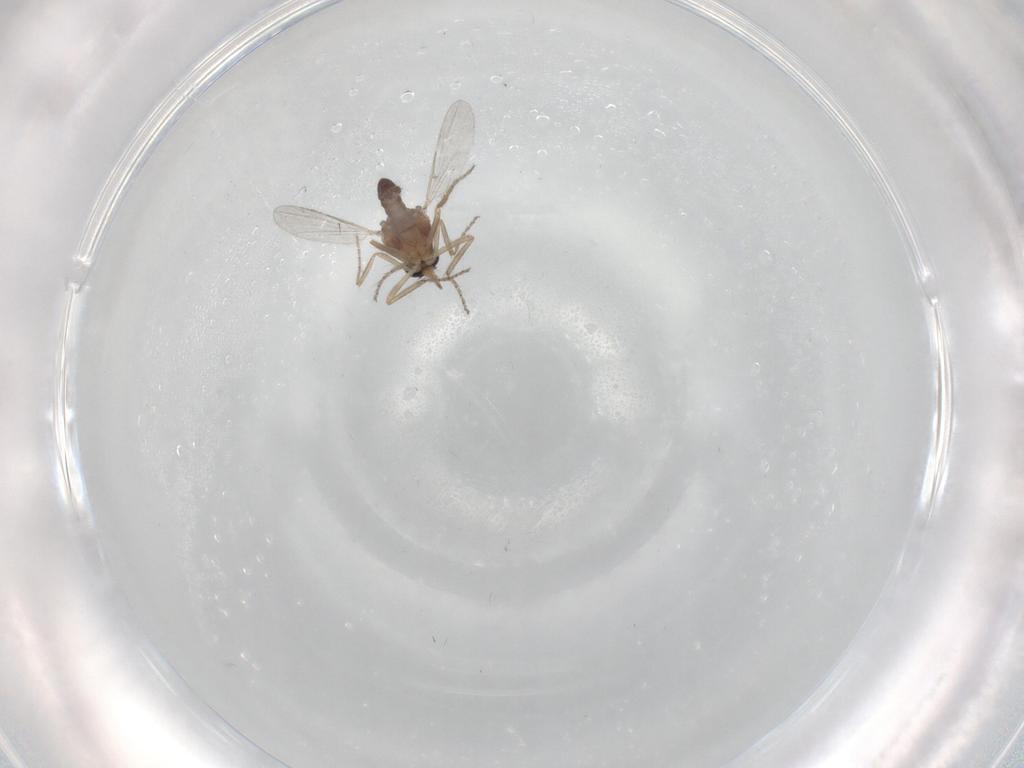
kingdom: Animalia
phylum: Arthropoda
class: Insecta
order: Diptera
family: Ceratopogonidae
